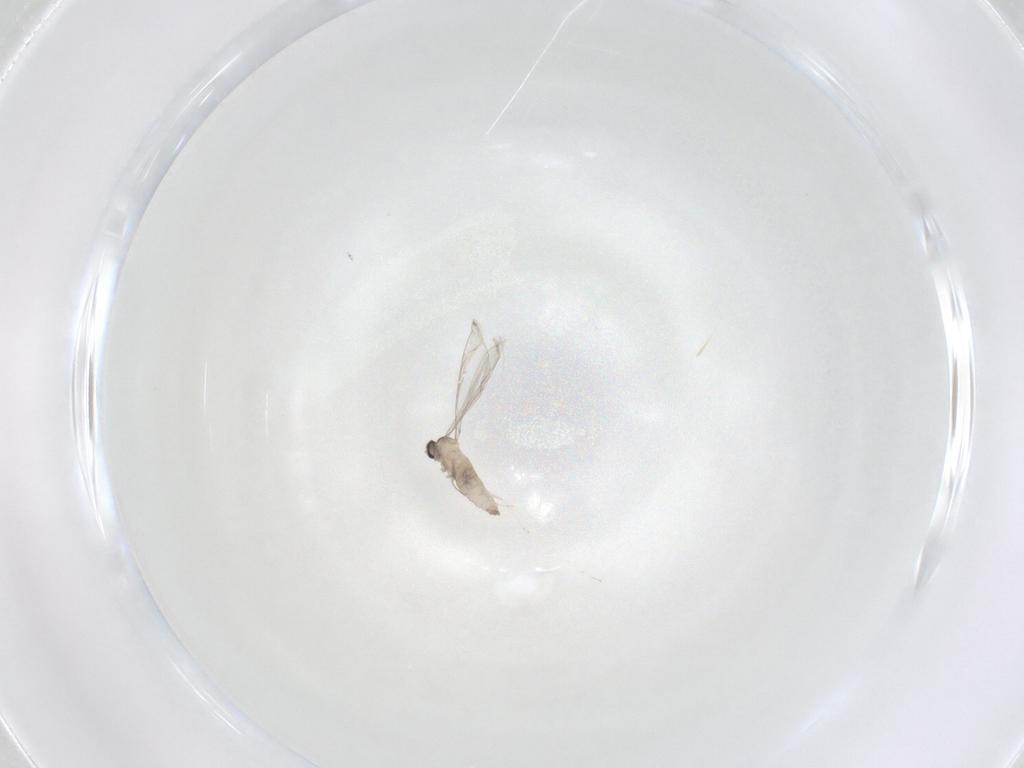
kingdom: Animalia
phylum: Arthropoda
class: Insecta
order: Diptera
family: Cecidomyiidae
